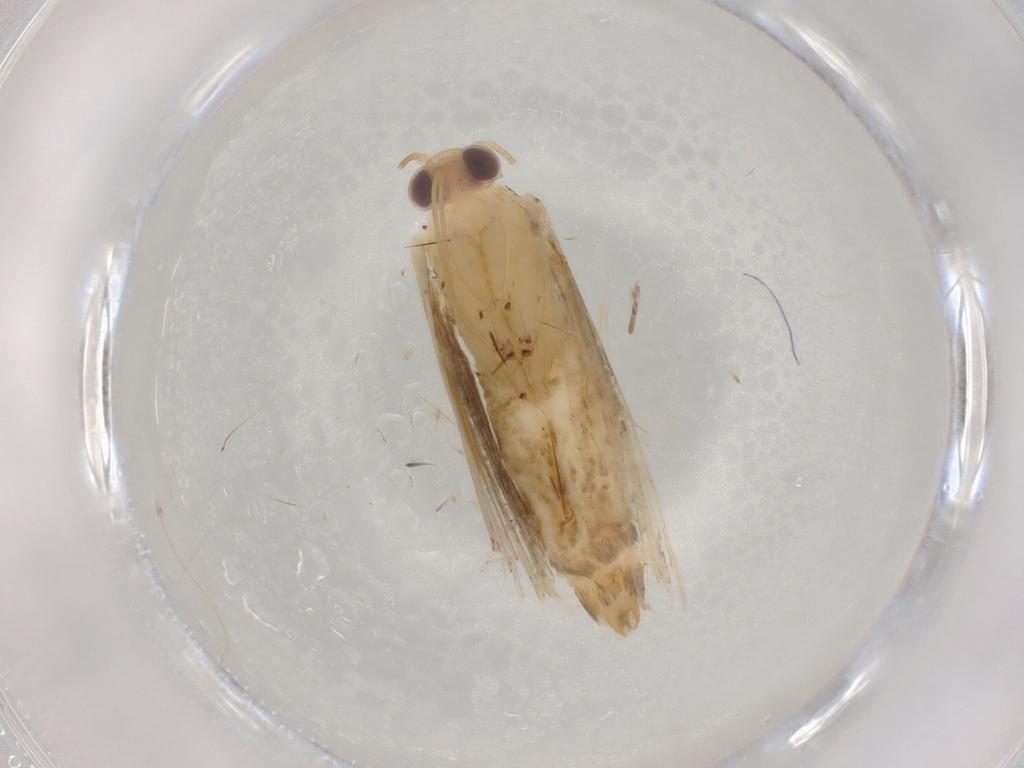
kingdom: Animalia
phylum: Arthropoda
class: Insecta
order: Lepidoptera
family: Erebidae
